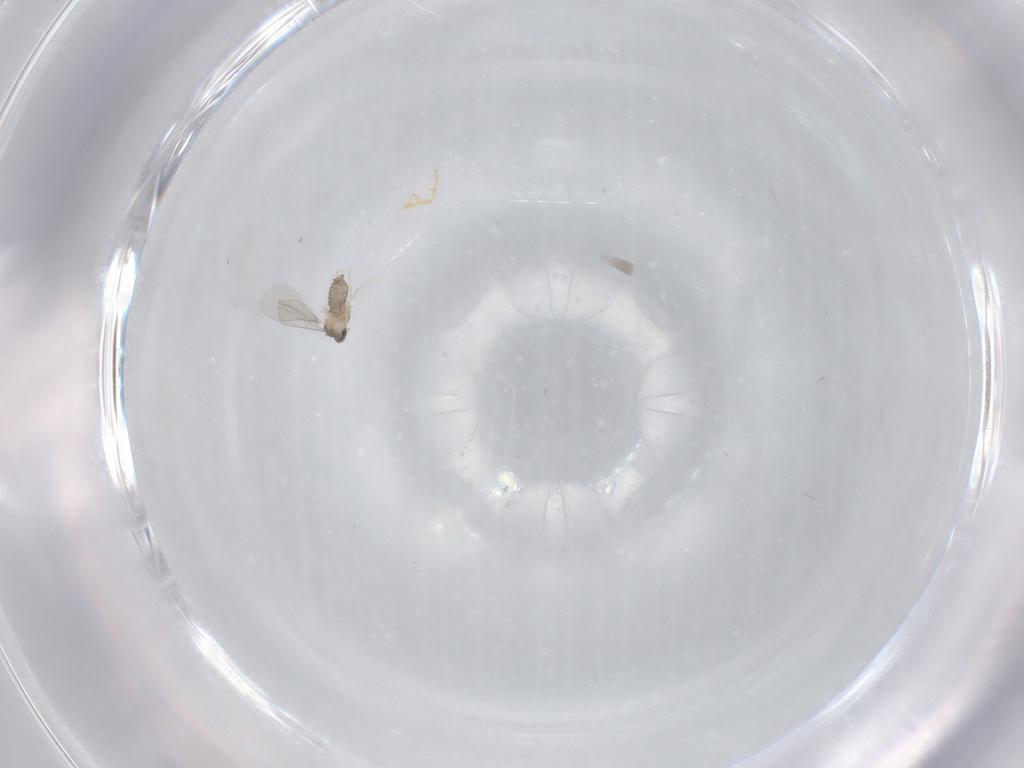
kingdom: Animalia
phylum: Arthropoda
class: Insecta
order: Diptera
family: Cecidomyiidae
